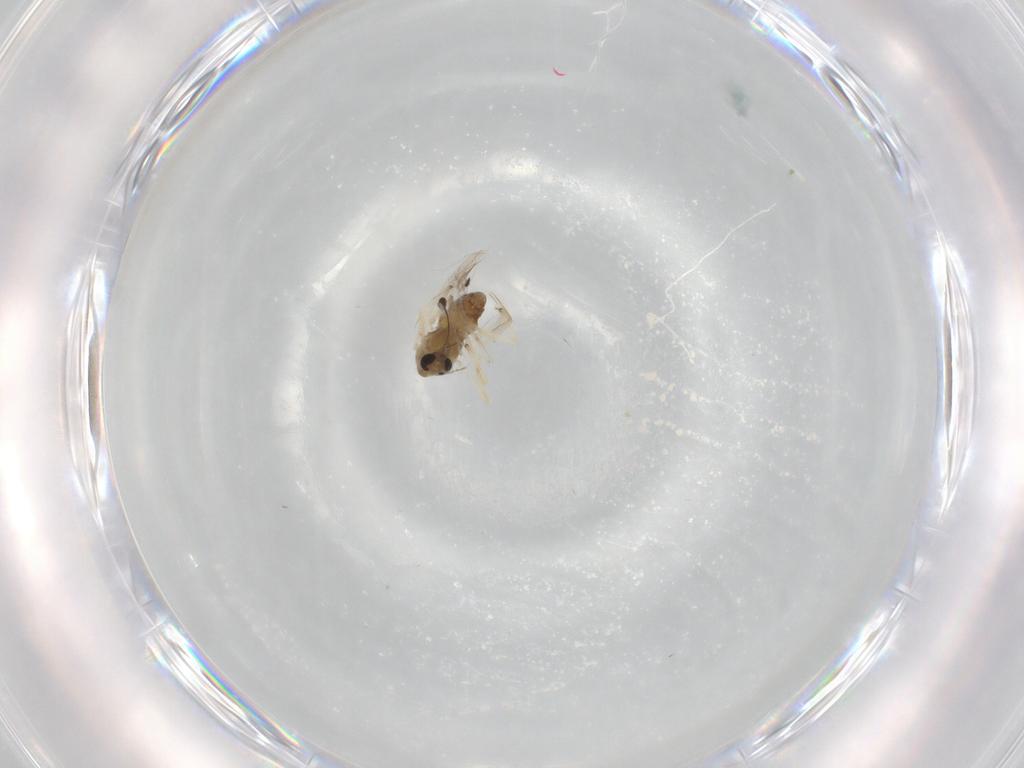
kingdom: Animalia
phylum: Arthropoda
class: Insecta
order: Diptera
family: Chironomidae
